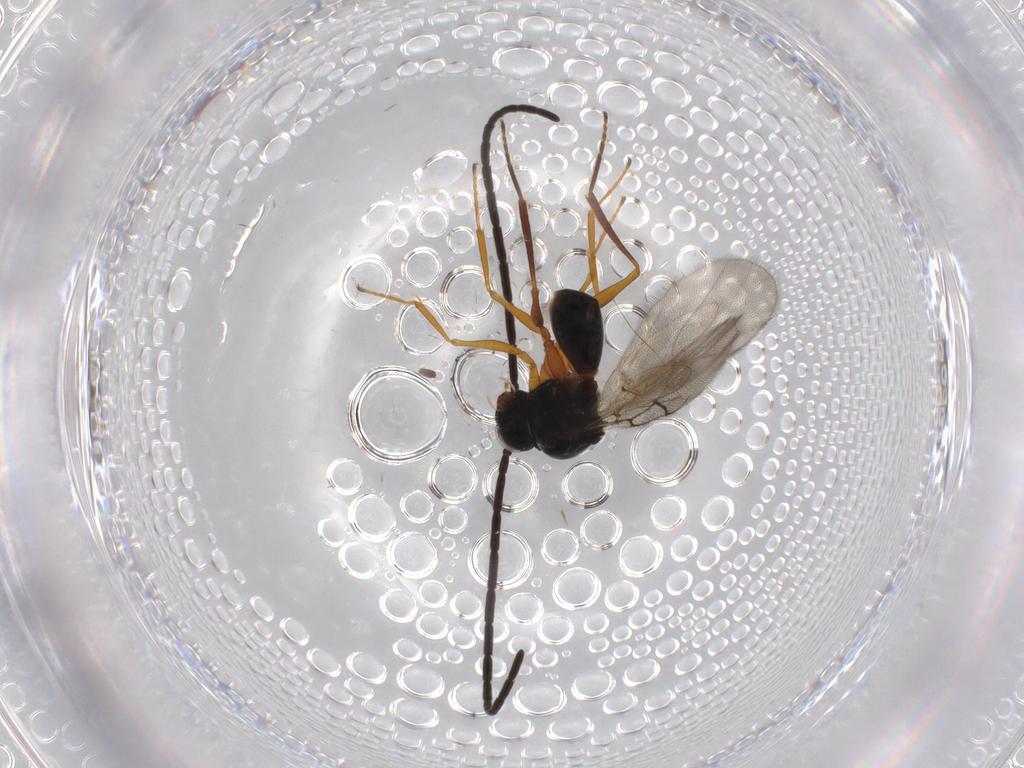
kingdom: Animalia
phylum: Arthropoda
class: Insecta
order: Hymenoptera
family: Figitidae
